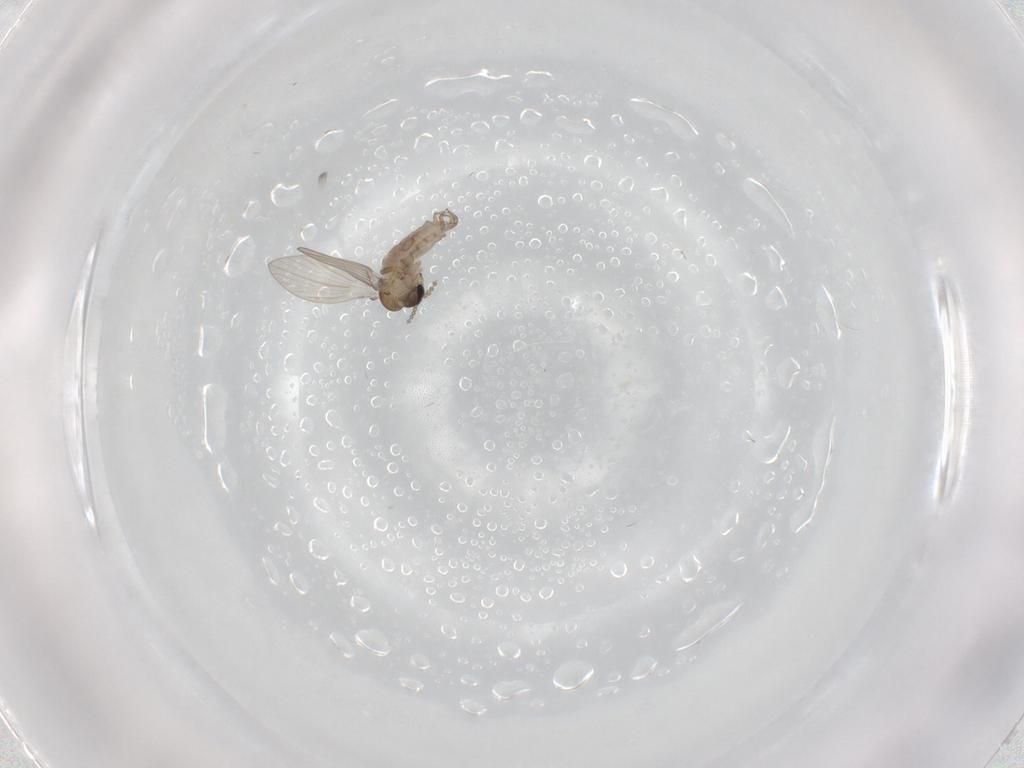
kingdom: Animalia
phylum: Arthropoda
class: Insecta
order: Diptera
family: Psychodidae
